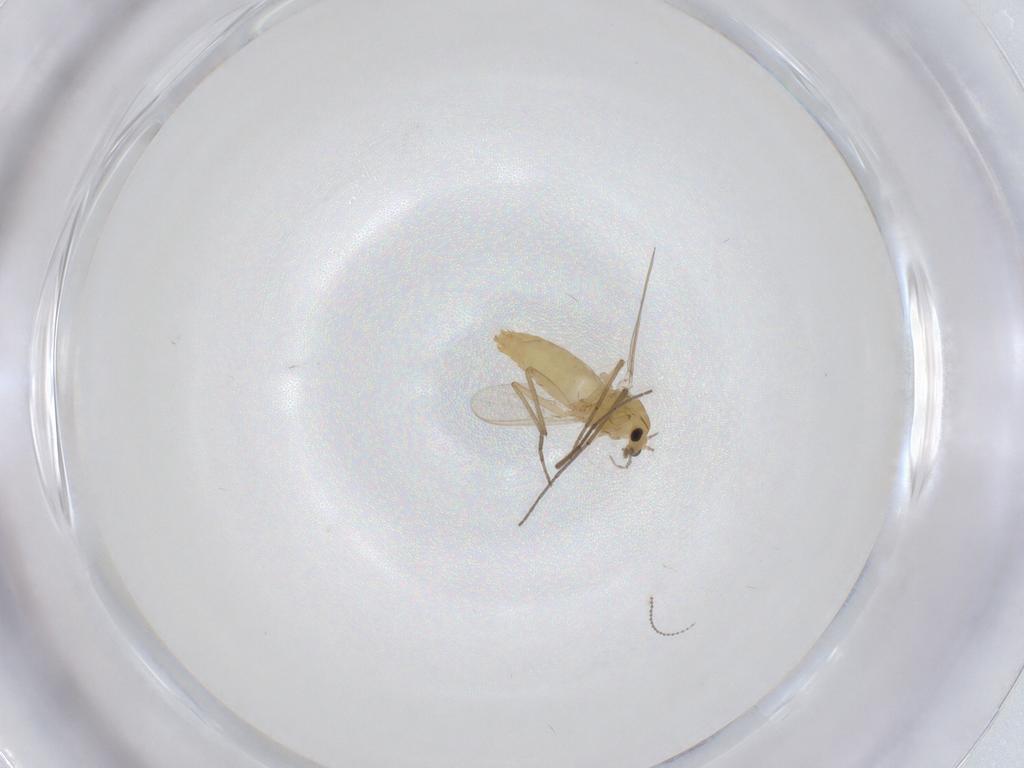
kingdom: Animalia
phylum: Arthropoda
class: Insecta
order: Diptera
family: Chironomidae
